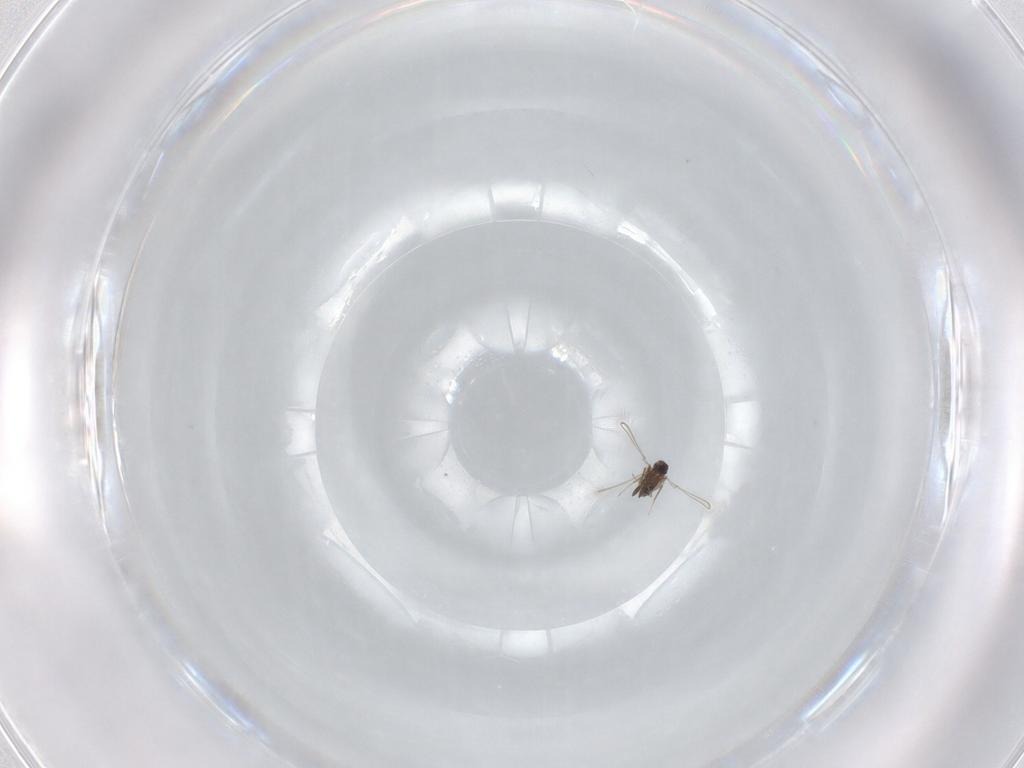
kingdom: Animalia
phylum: Arthropoda
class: Insecta
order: Hymenoptera
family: Mymaridae
